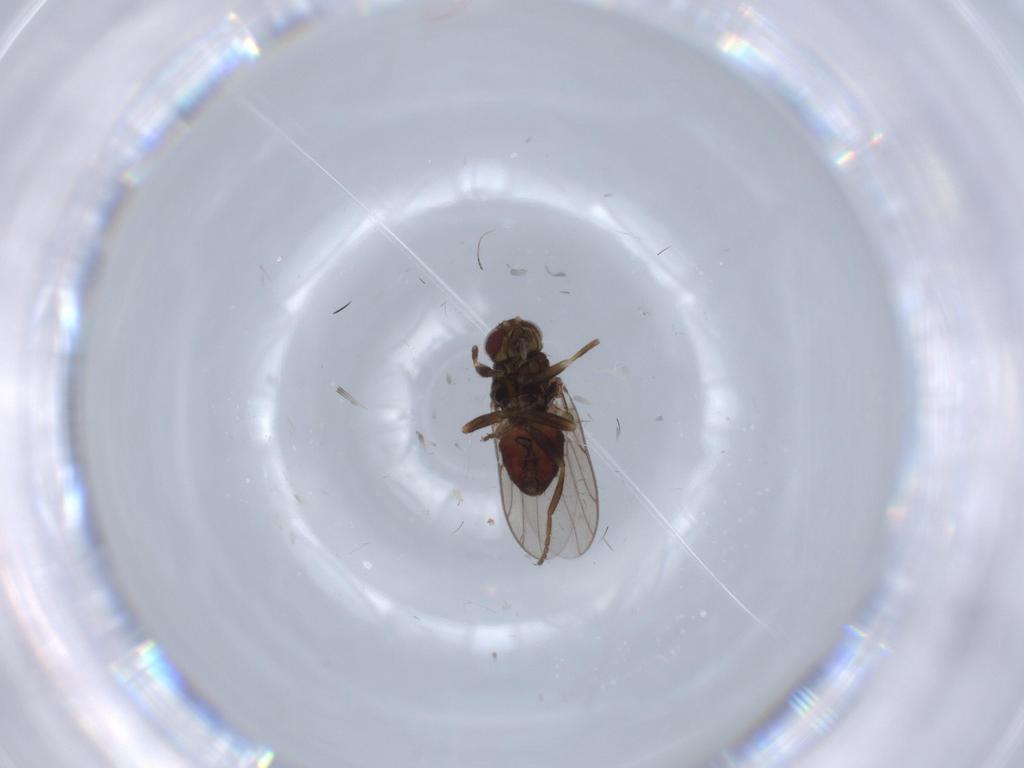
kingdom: Animalia
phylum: Arthropoda
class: Insecta
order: Diptera
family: Chloropidae
